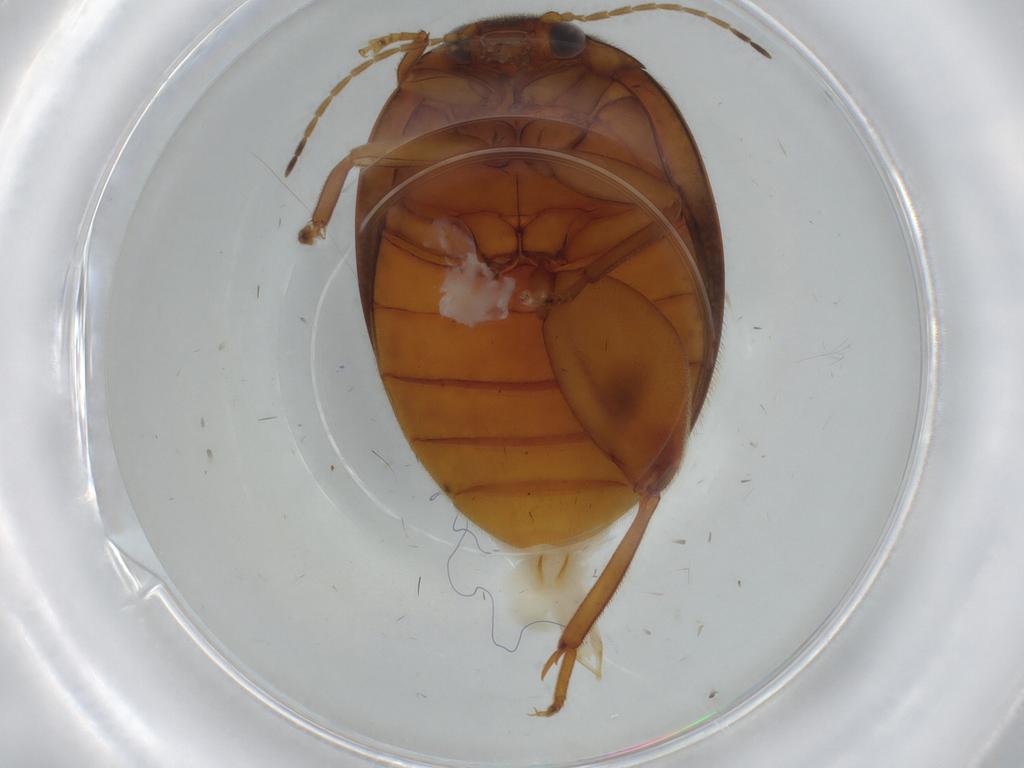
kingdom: Animalia
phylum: Arthropoda
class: Insecta
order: Coleoptera
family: Scirtidae
